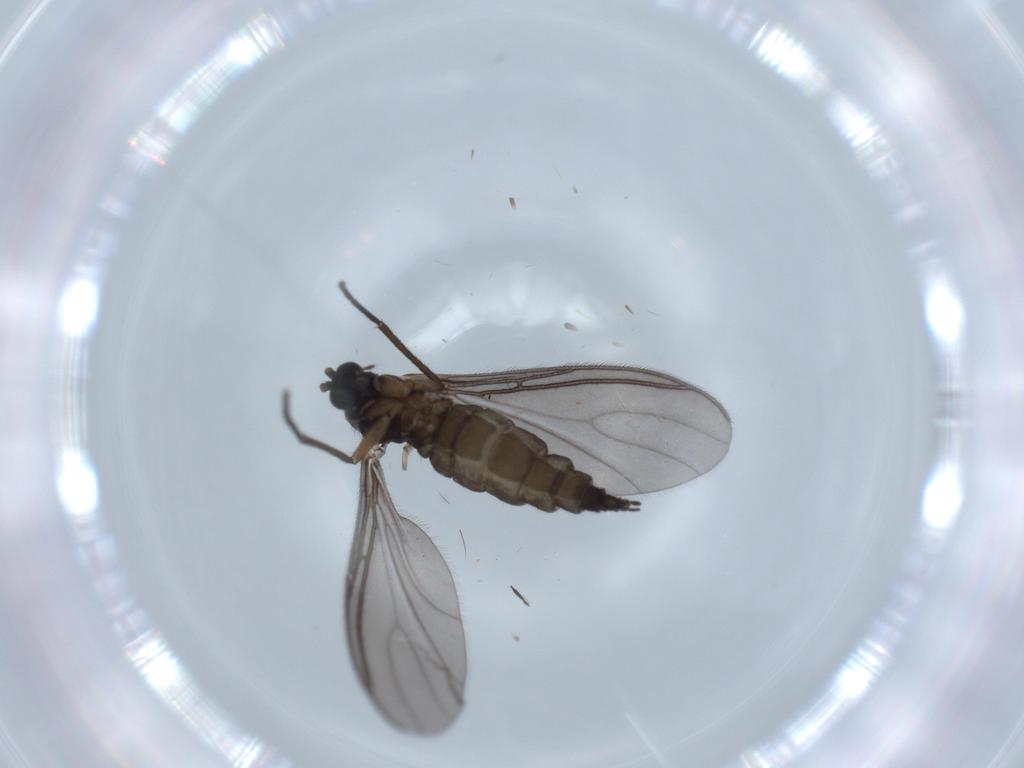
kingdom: Animalia
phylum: Arthropoda
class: Insecta
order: Diptera
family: Sciaridae
